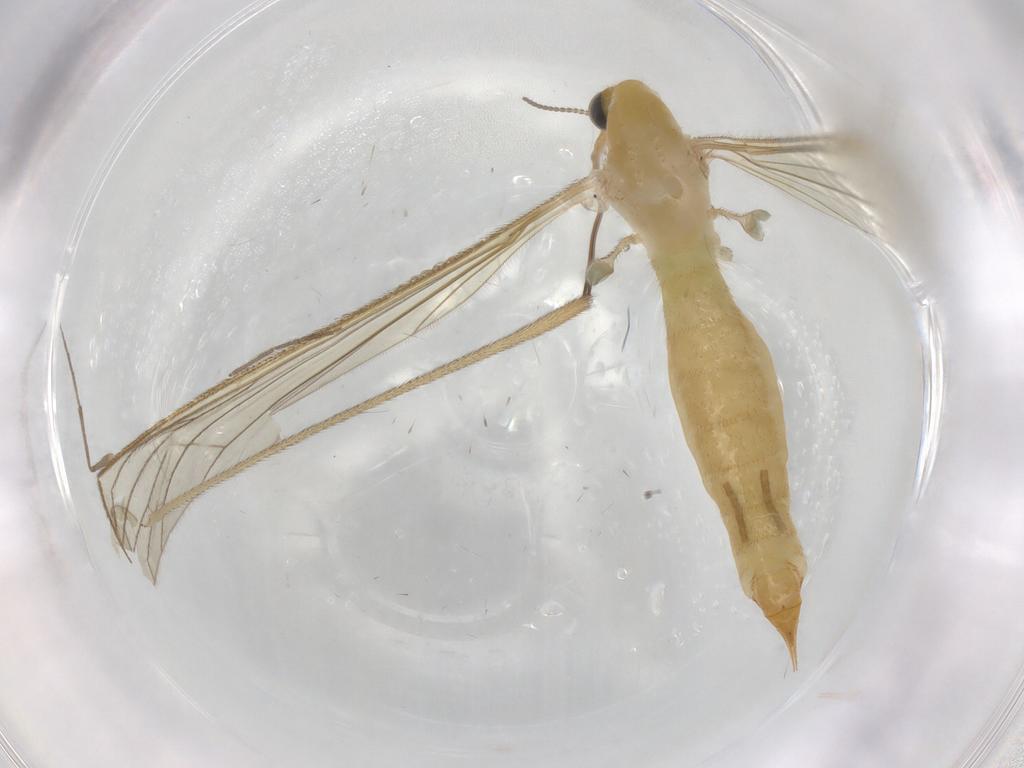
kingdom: Animalia
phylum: Arthropoda
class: Insecta
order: Diptera
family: Limoniidae
